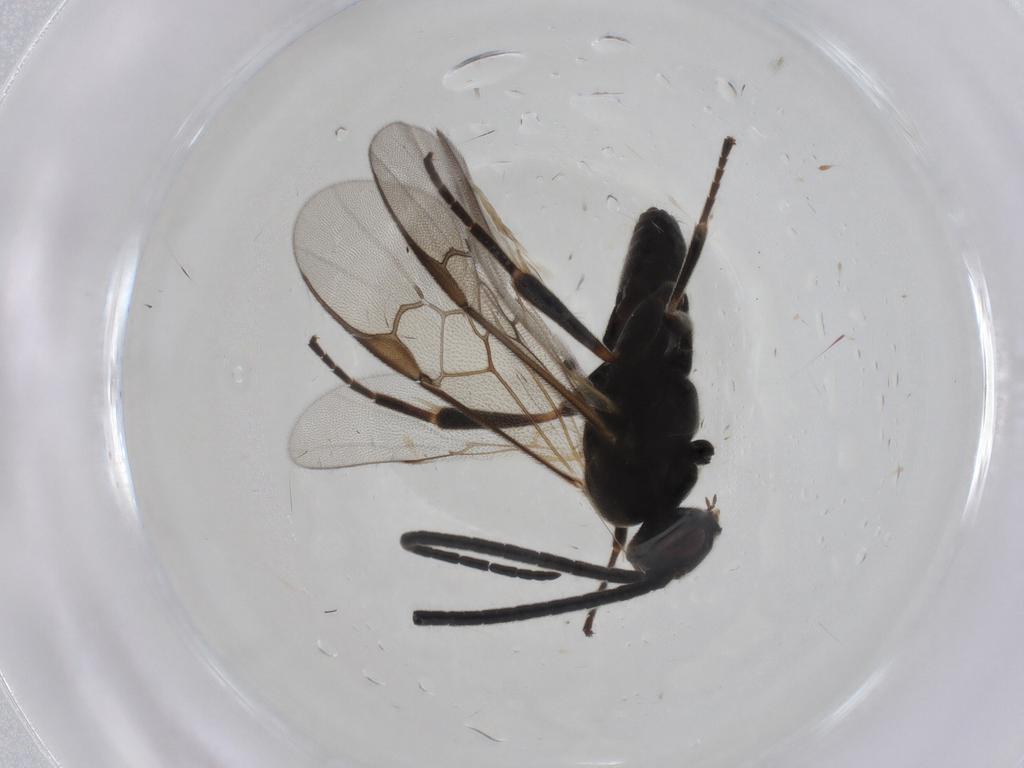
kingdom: Animalia
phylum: Arthropoda
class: Insecta
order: Hymenoptera
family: Braconidae
